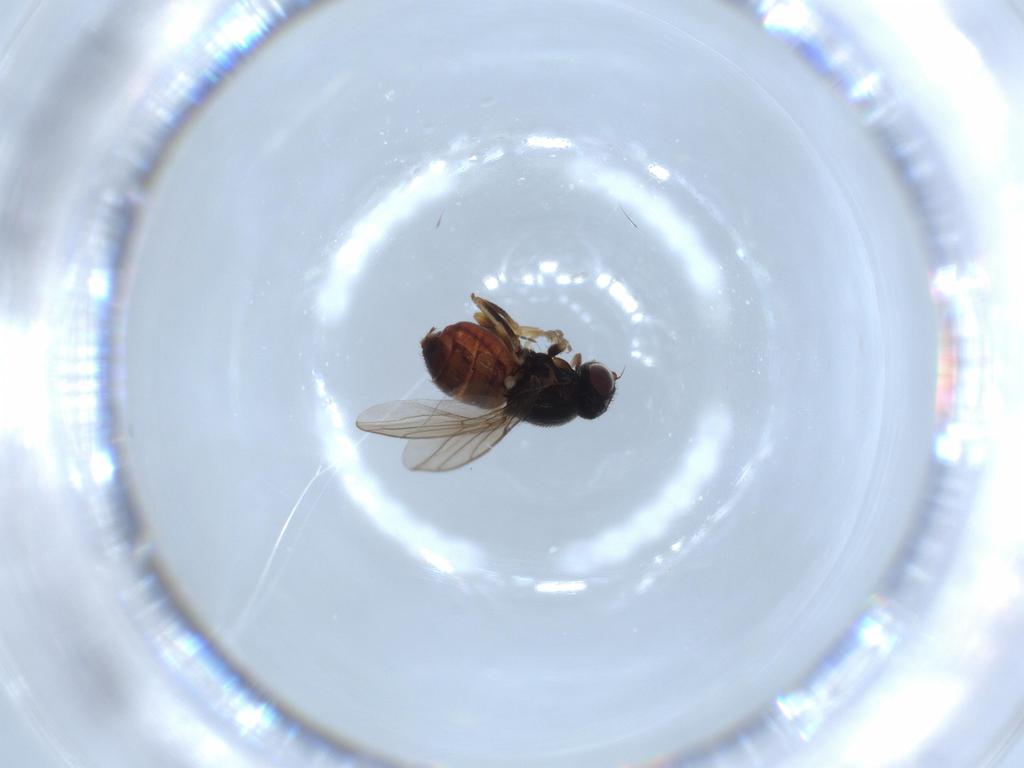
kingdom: Animalia
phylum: Arthropoda
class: Insecta
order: Diptera
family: Chloropidae
